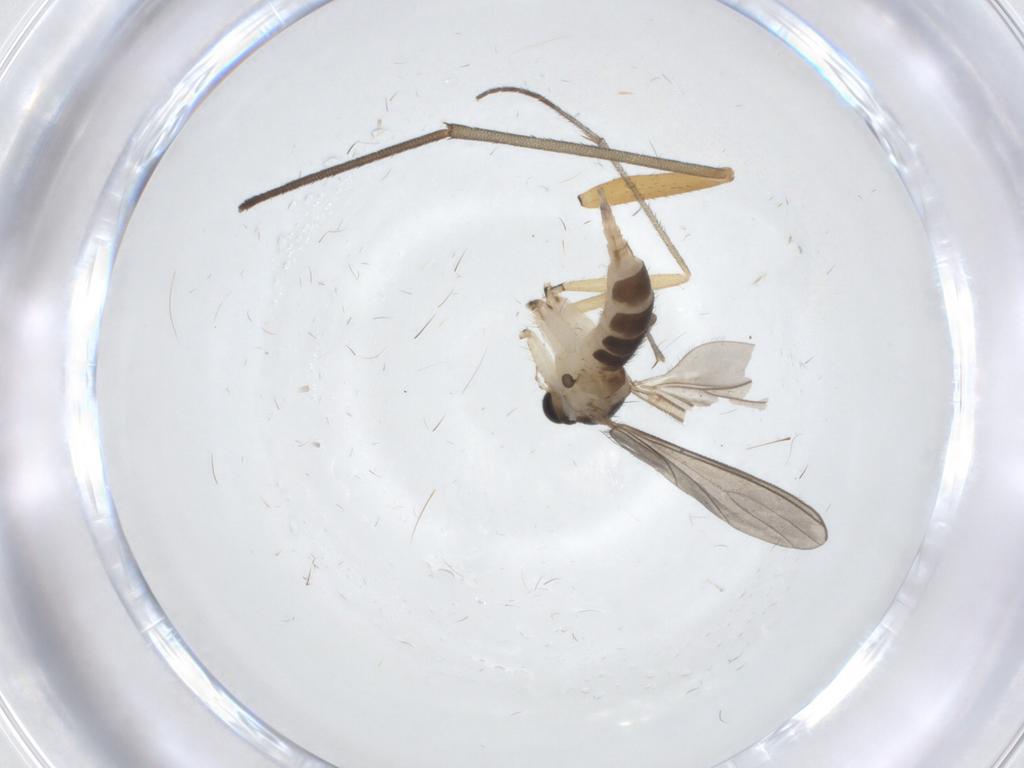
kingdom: Animalia
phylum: Arthropoda
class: Insecta
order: Diptera
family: Sciaridae
